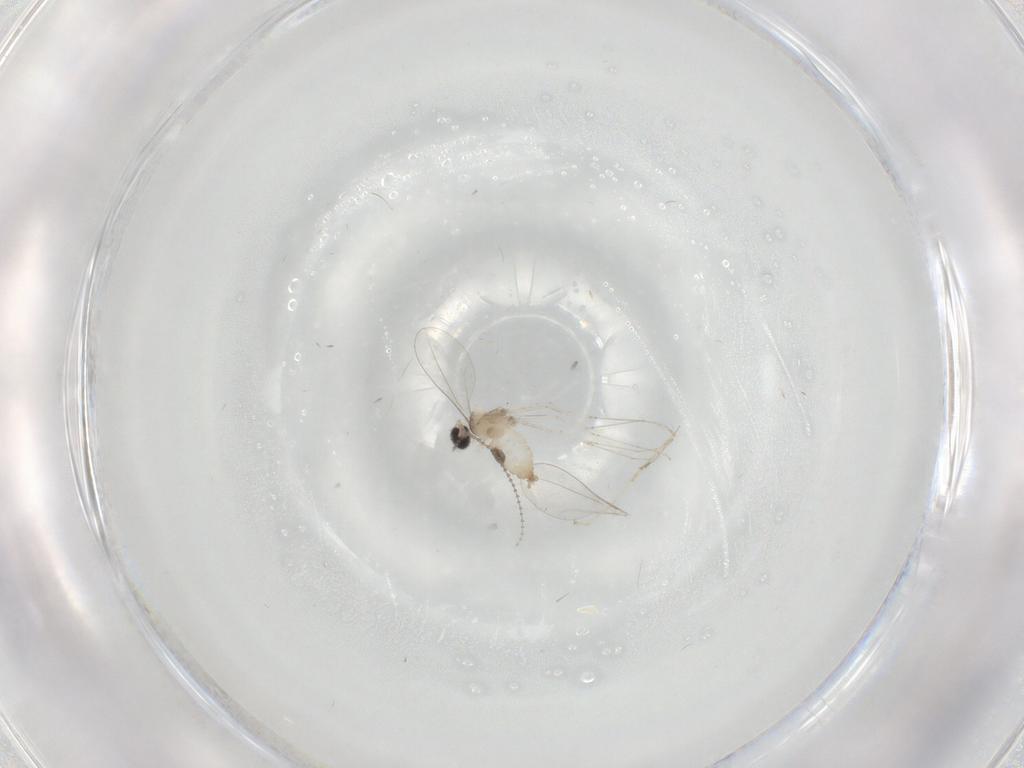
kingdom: Animalia
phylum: Arthropoda
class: Insecta
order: Diptera
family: Cecidomyiidae
